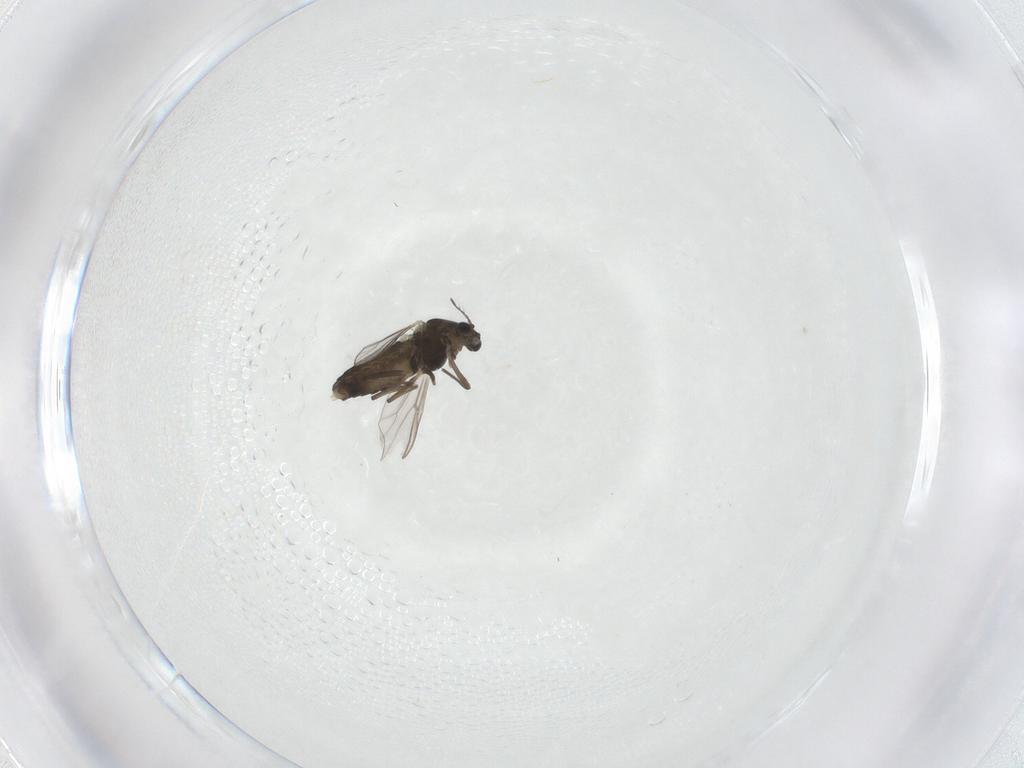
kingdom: Animalia
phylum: Arthropoda
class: Insecta
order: Diptera
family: Chironomidae
